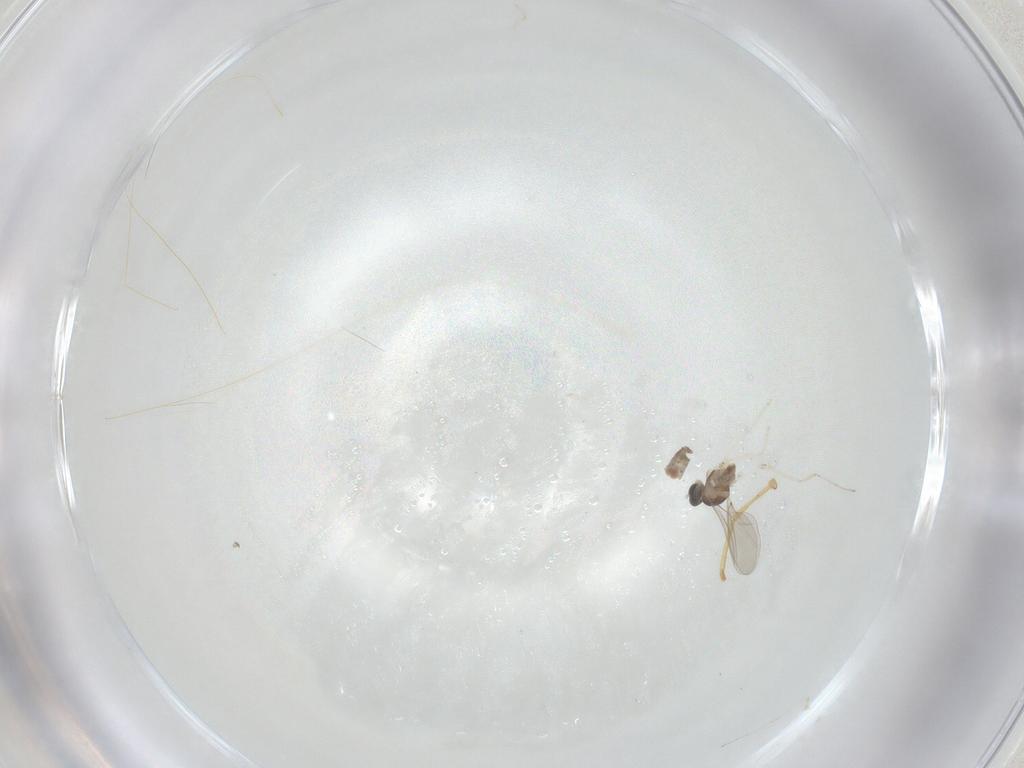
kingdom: Animalia
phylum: Arthropoda
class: Insecta
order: Diptera
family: Cecidomyiidae
